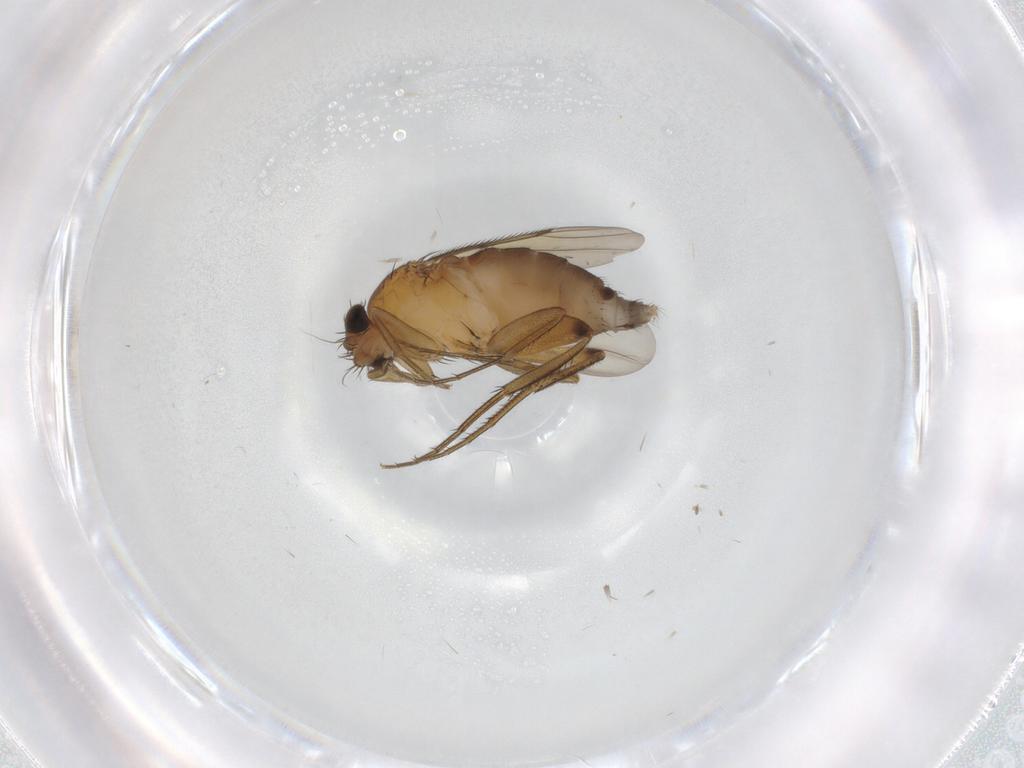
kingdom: Animalia
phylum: Arthropoda
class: Insecta
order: Diptera
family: Phoridae
